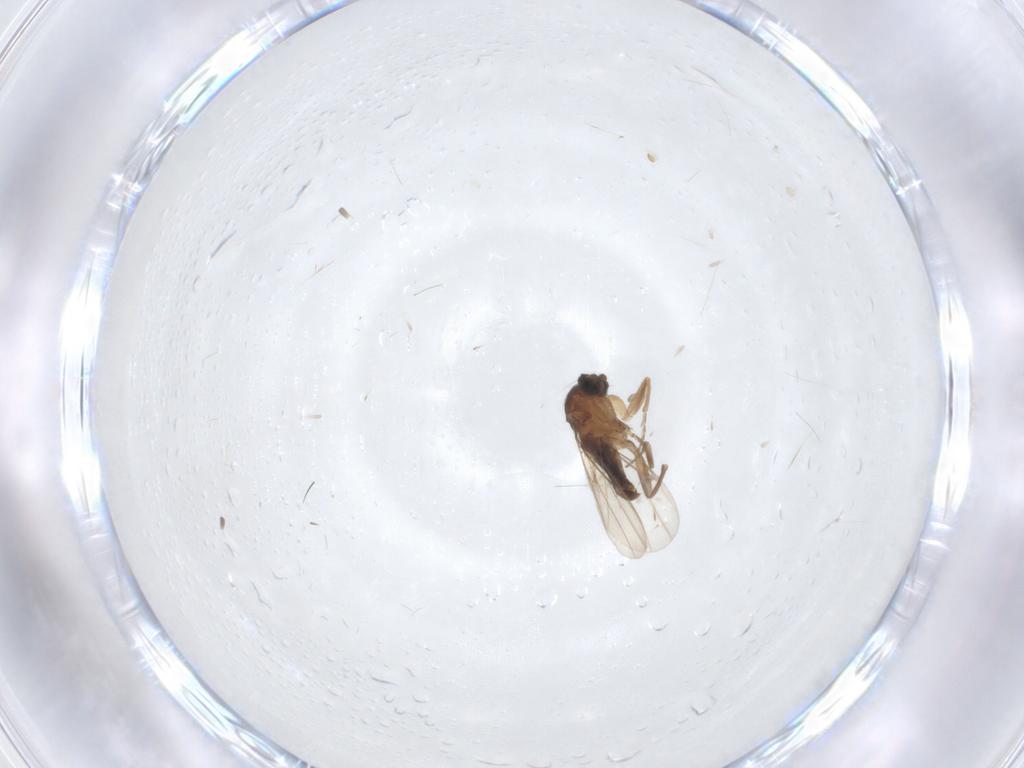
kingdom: Animalia
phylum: Arthropoda
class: Insecta
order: Diptera
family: Phoridae
